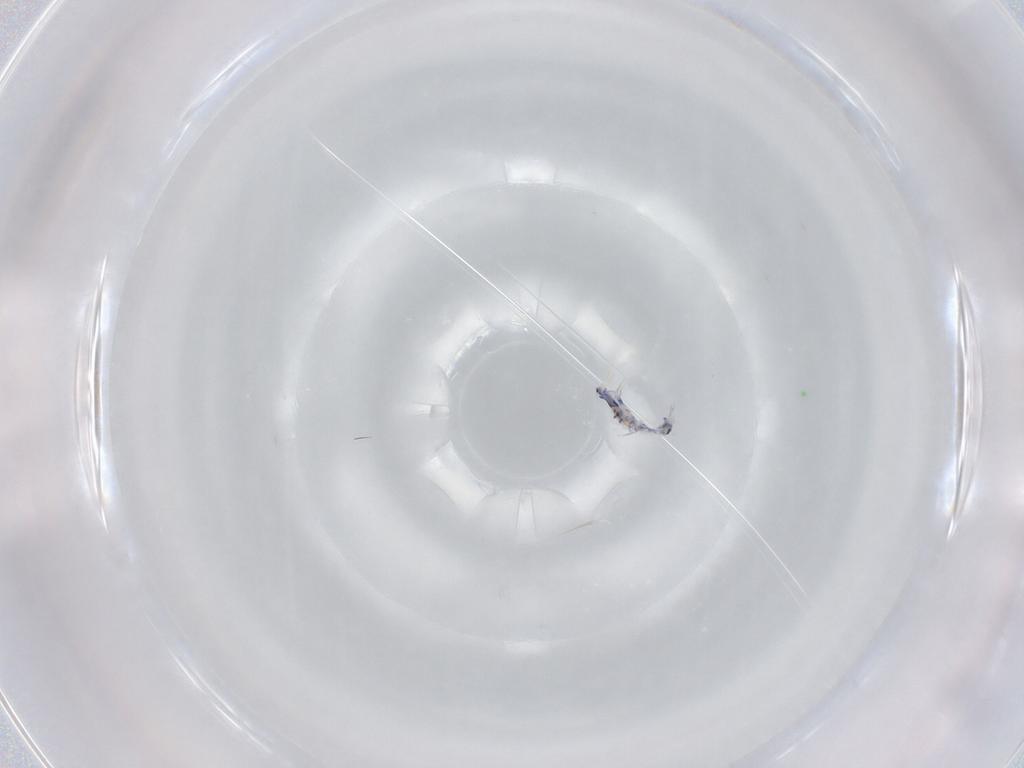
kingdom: Animalia
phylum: Arthropoda
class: Collembola
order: Entomobryomorpha
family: Entomobryidae
